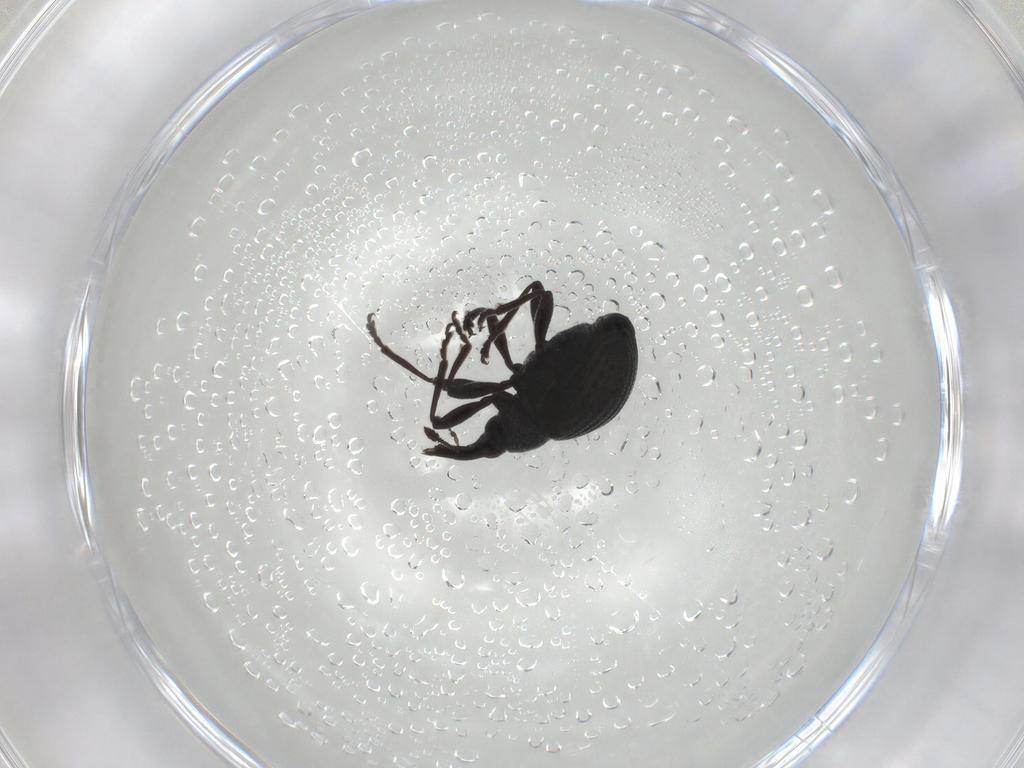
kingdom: Animalia
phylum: Arthropoda
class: Insecta
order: Coleoptera
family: Brentidae
